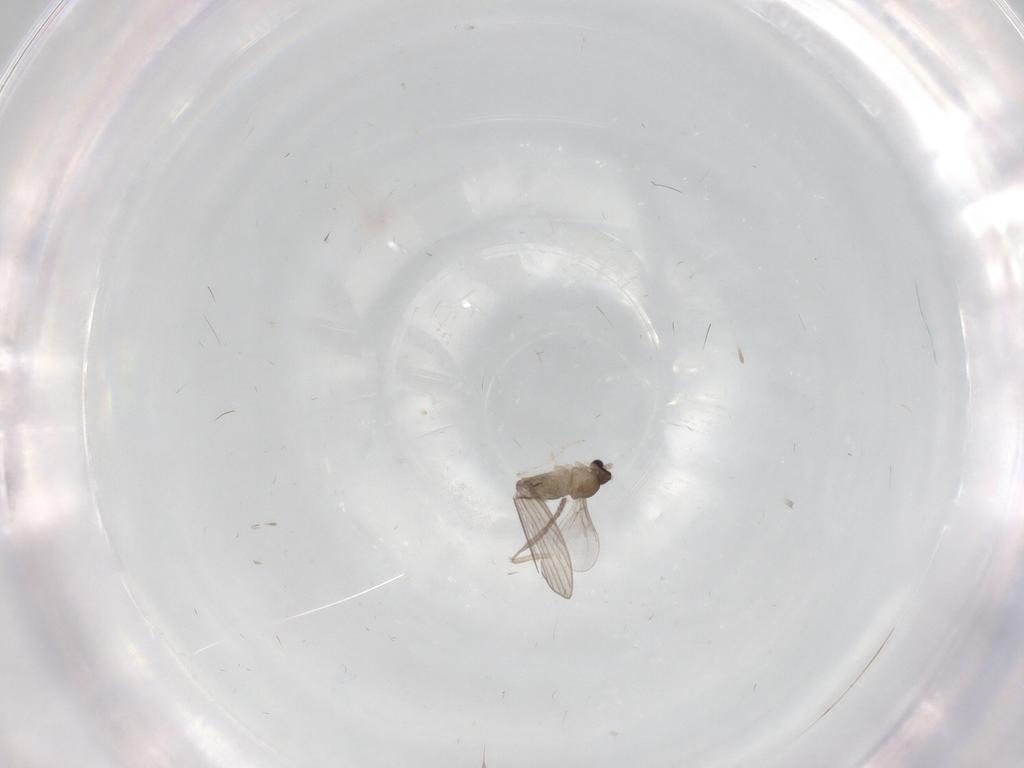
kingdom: Animalia
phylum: Arthropoda
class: Insecta
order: Diptera
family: Cecidomyiidae
